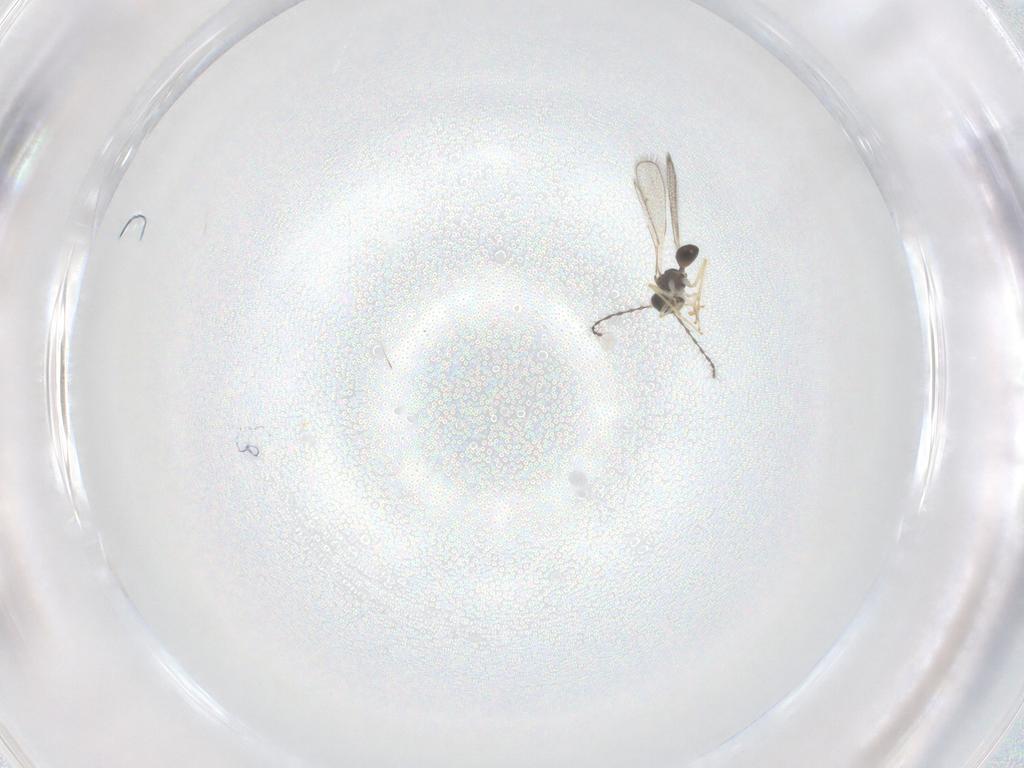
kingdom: Animalia
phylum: Arthropoda
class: Insecta
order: Hymenoptera
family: Diparidae
